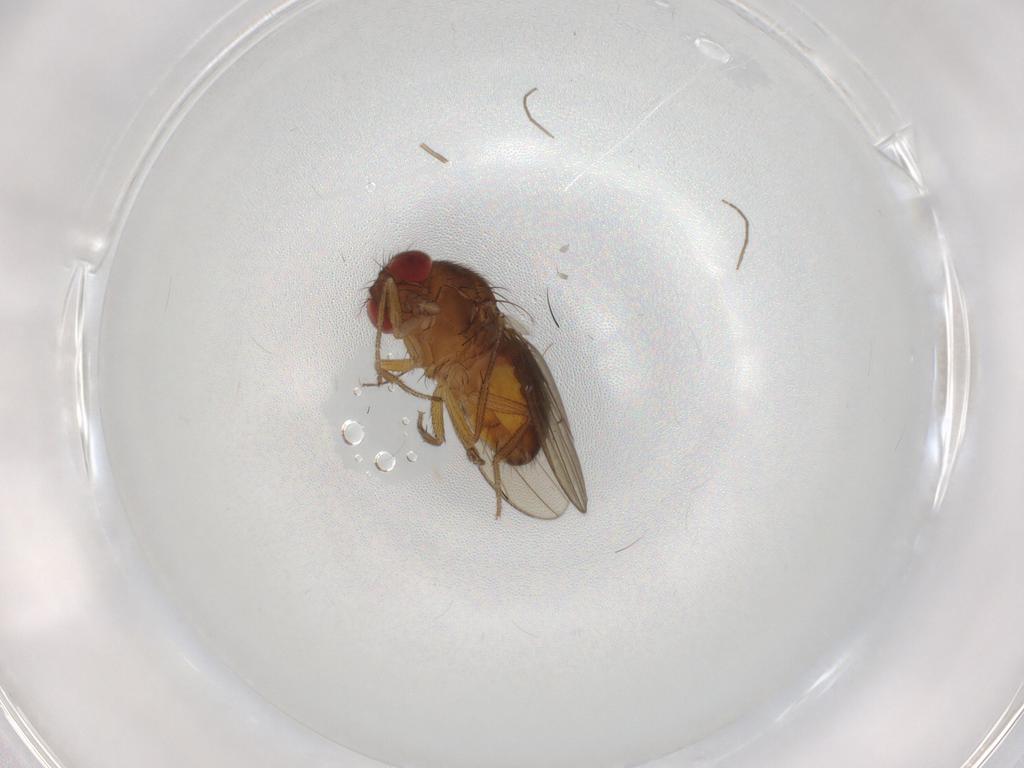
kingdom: Animalia
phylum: Arthropoda
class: Insecta
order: Diptera
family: Drosophilidae
